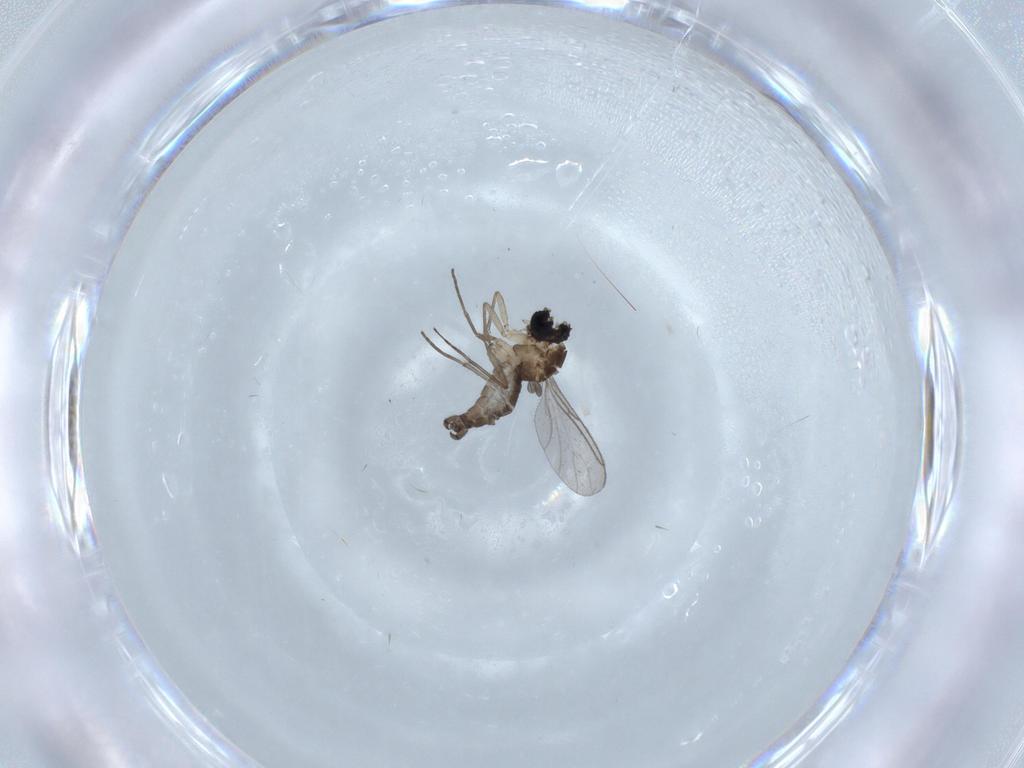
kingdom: Animalia
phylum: Arthropoda
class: Insecta
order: Diptera
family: Sciaridae
